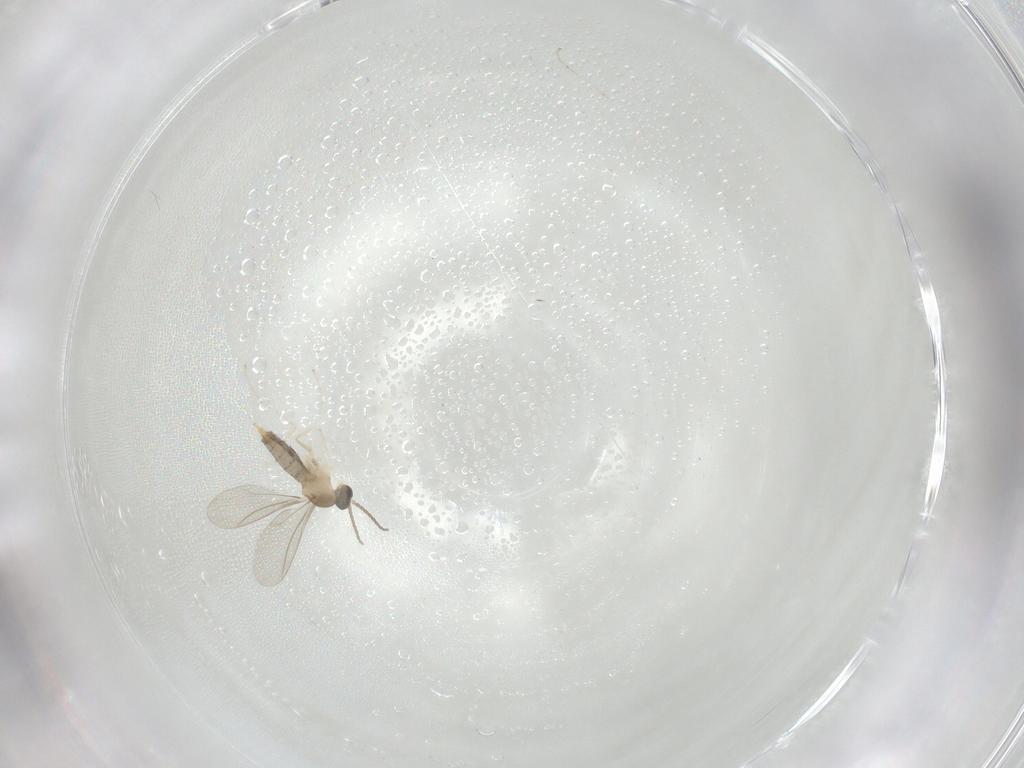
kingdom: Animalia
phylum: Arthropoda
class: Insecta
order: Diptera
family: Cecidomyiidae
